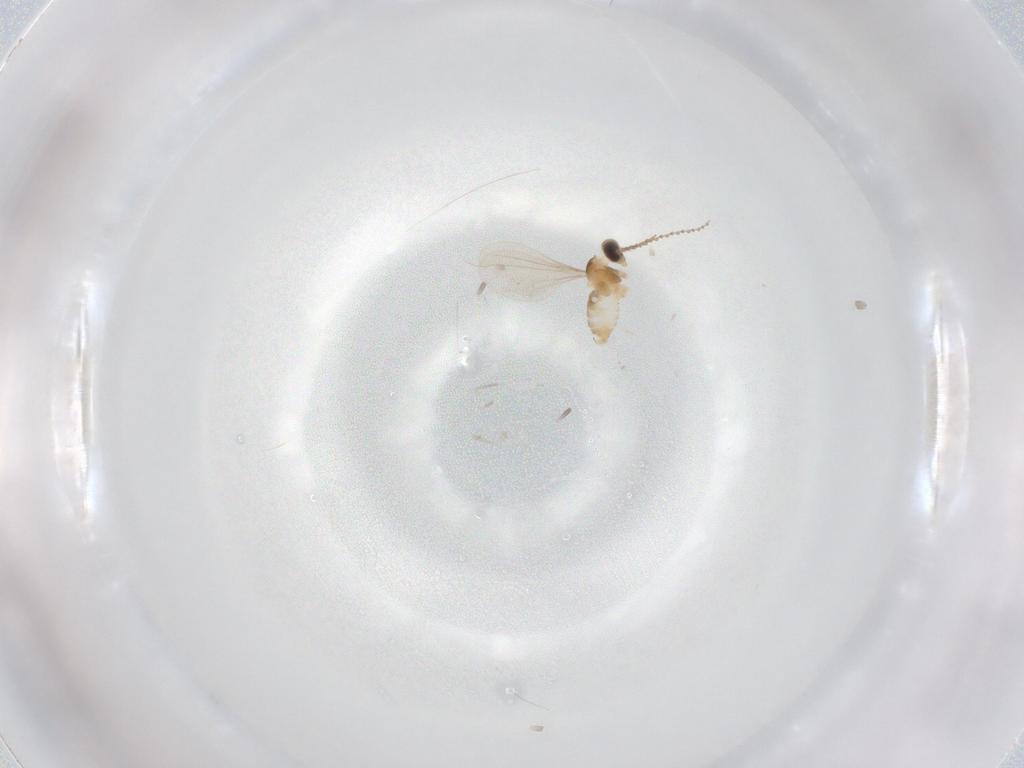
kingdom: Animalia
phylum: Arthropoda
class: Insecta
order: Diptera
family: Cecidomyiidae
